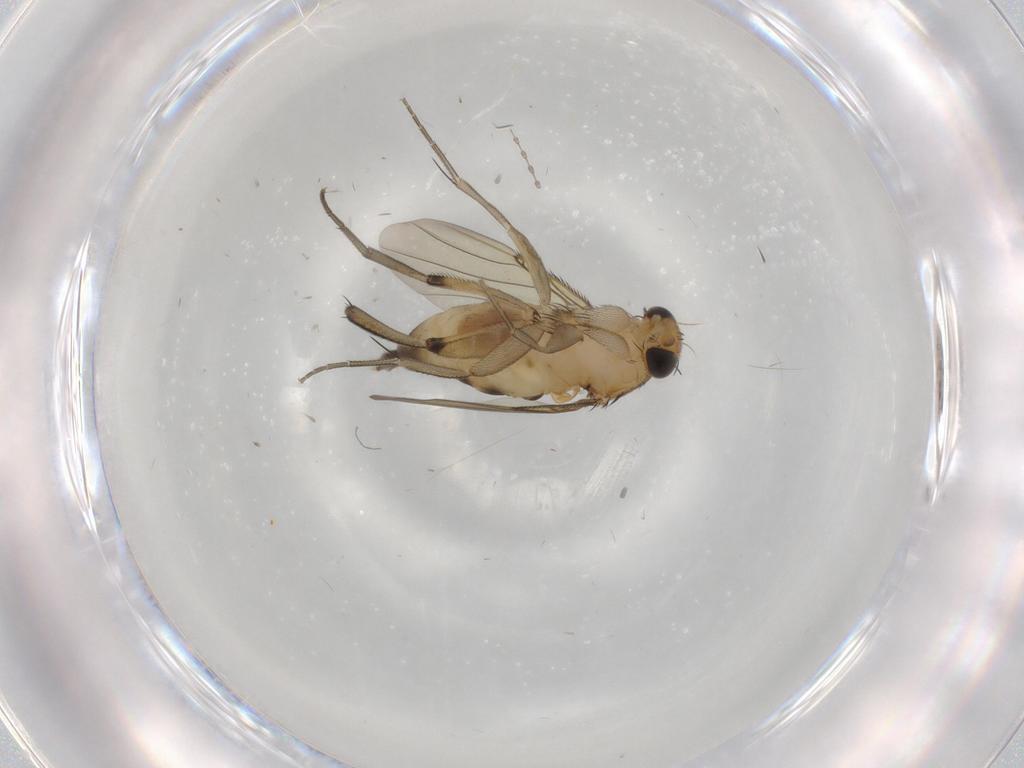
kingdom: Animalia
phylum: Arthropoda
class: Insecta
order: Diptera
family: Phoridae
